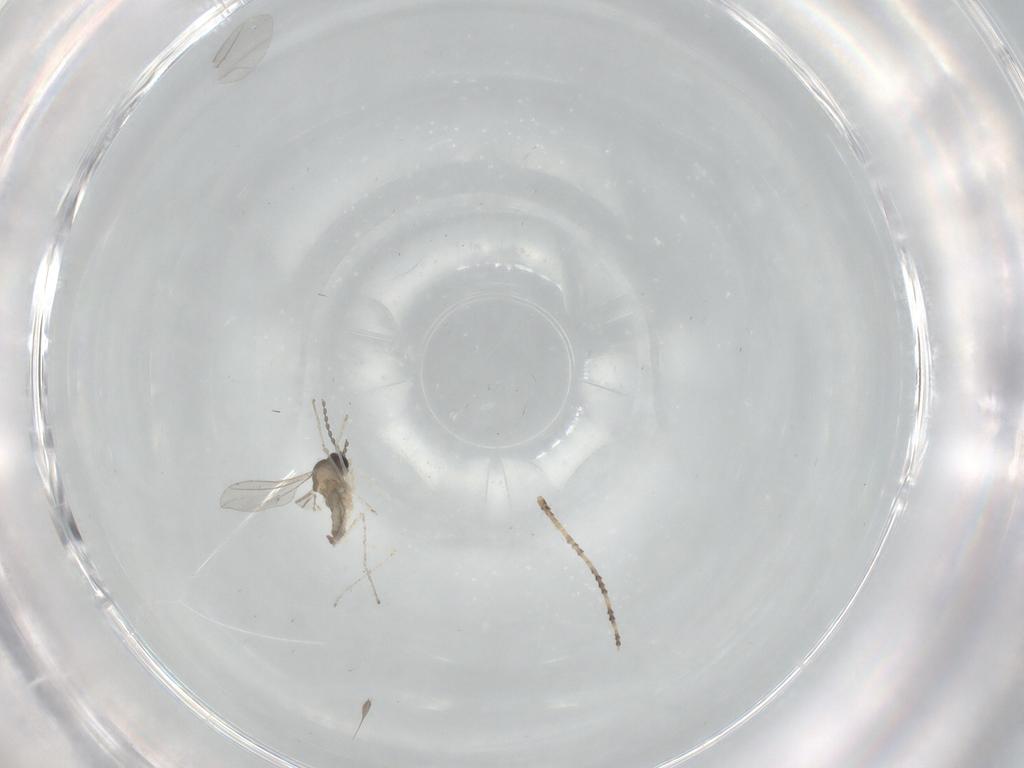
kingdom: Animalia
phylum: Arthropoda
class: Insecta
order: Diptera
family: Cecidomyiidae
